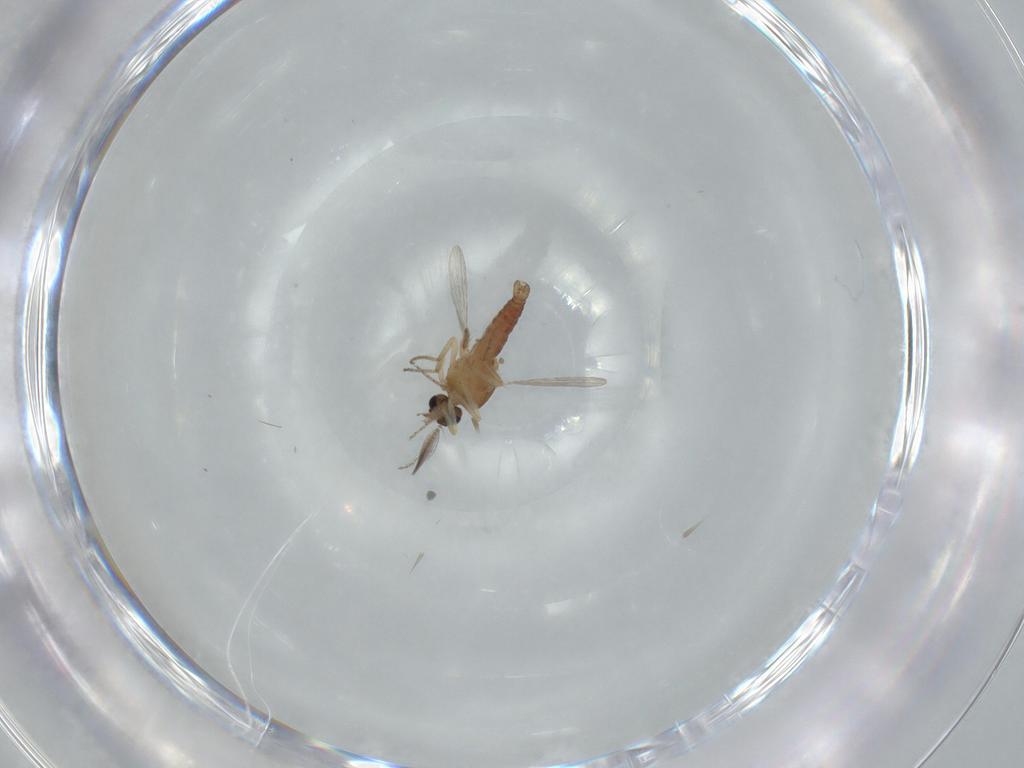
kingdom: Animalia
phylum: Arthropoda
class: Insecta
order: Diptera
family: Ceratopogonidae
